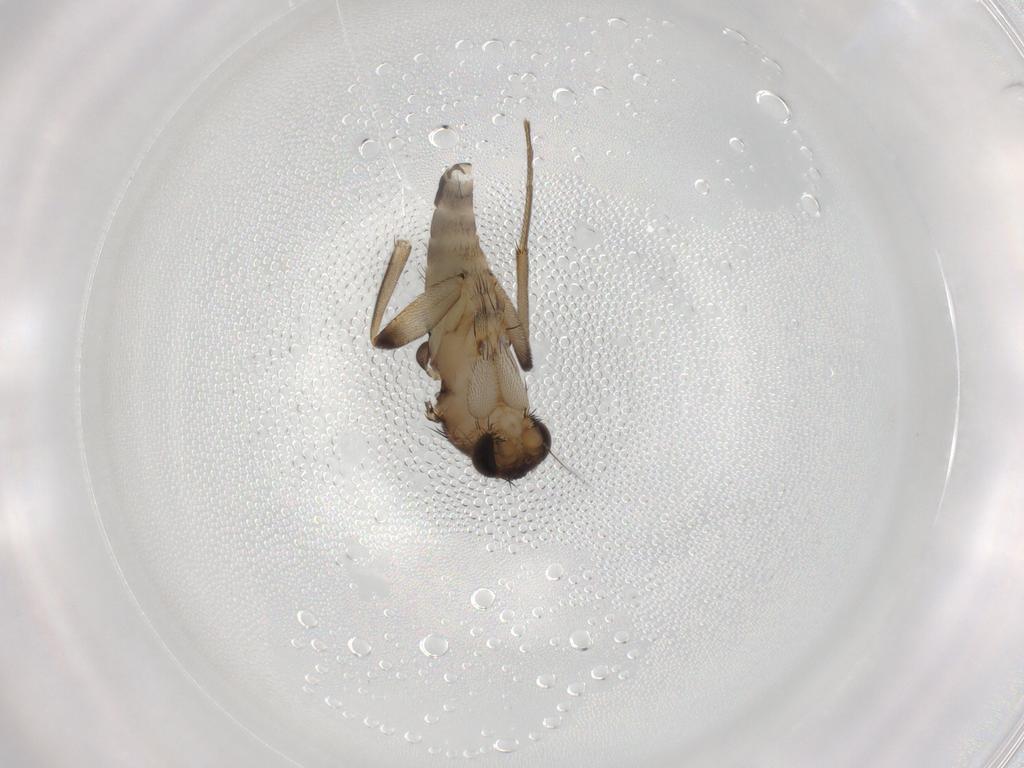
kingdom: Animalia
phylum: Arthropoda
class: Insecta
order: Diptera
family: Phoridae
